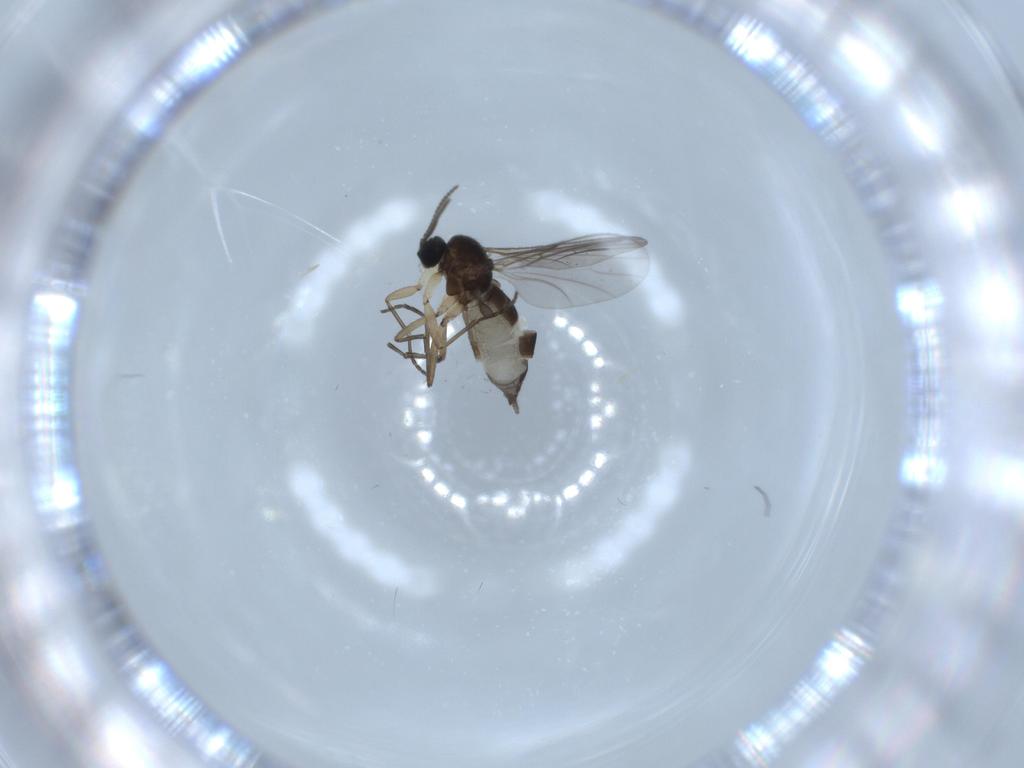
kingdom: Animalia
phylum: Arthropoda
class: Insecta
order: Diptera
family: Sciaridae
